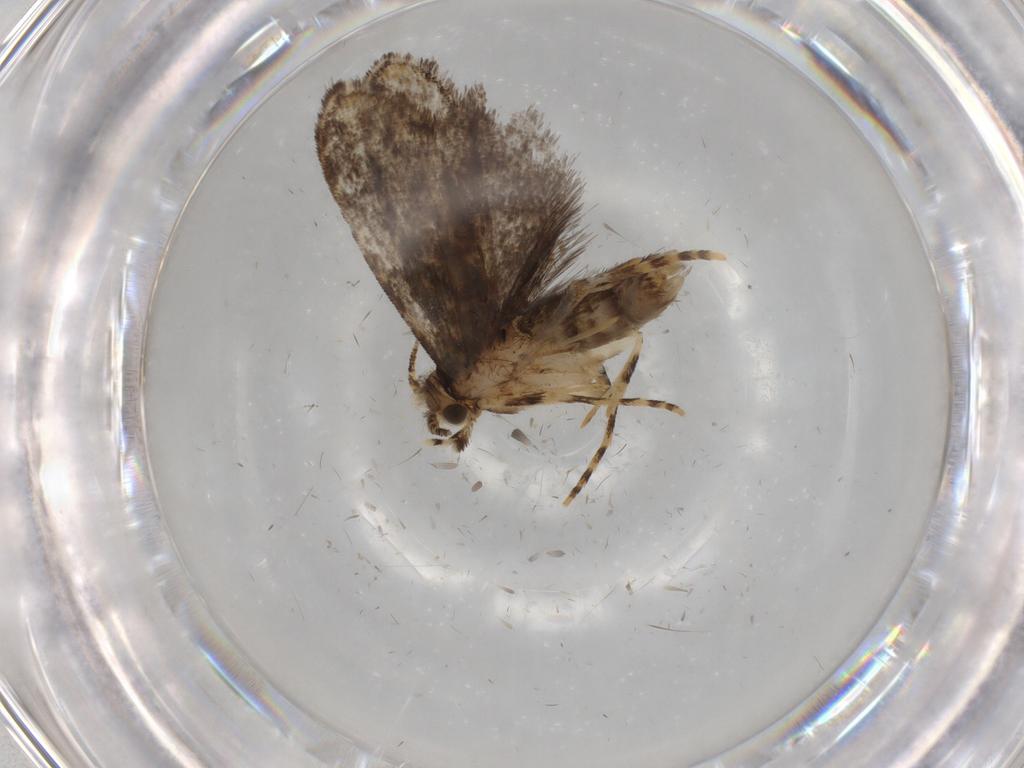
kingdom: Animalia
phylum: Arthropoda
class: Insecta
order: Lepidoptera
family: Tineidae
